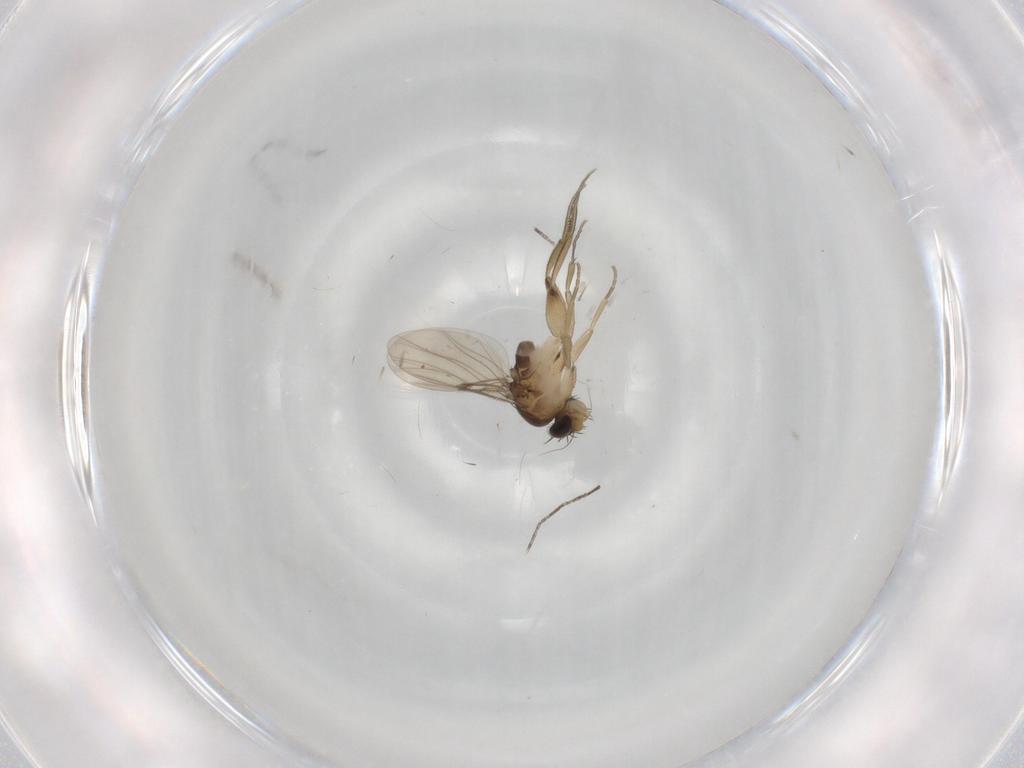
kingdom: Animalia
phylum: Arthropoda
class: Insecta
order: Diptera
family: Phoridae
